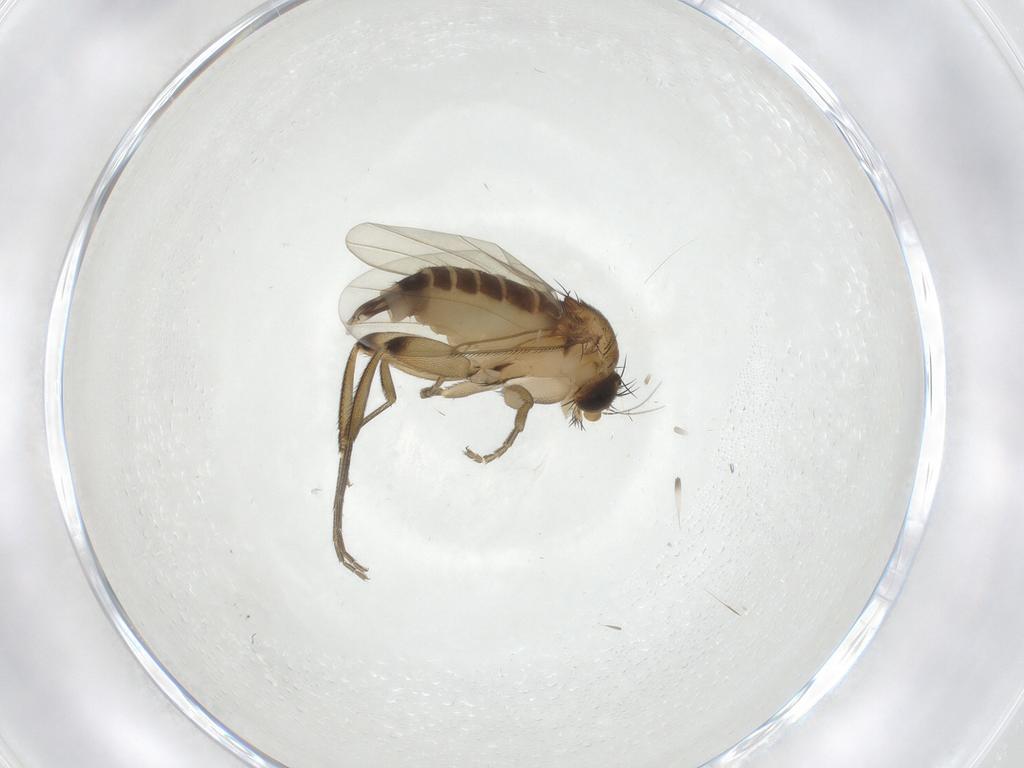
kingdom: Animalia
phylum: Arthropoda
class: Insecta
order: Diptera
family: Phoridae
